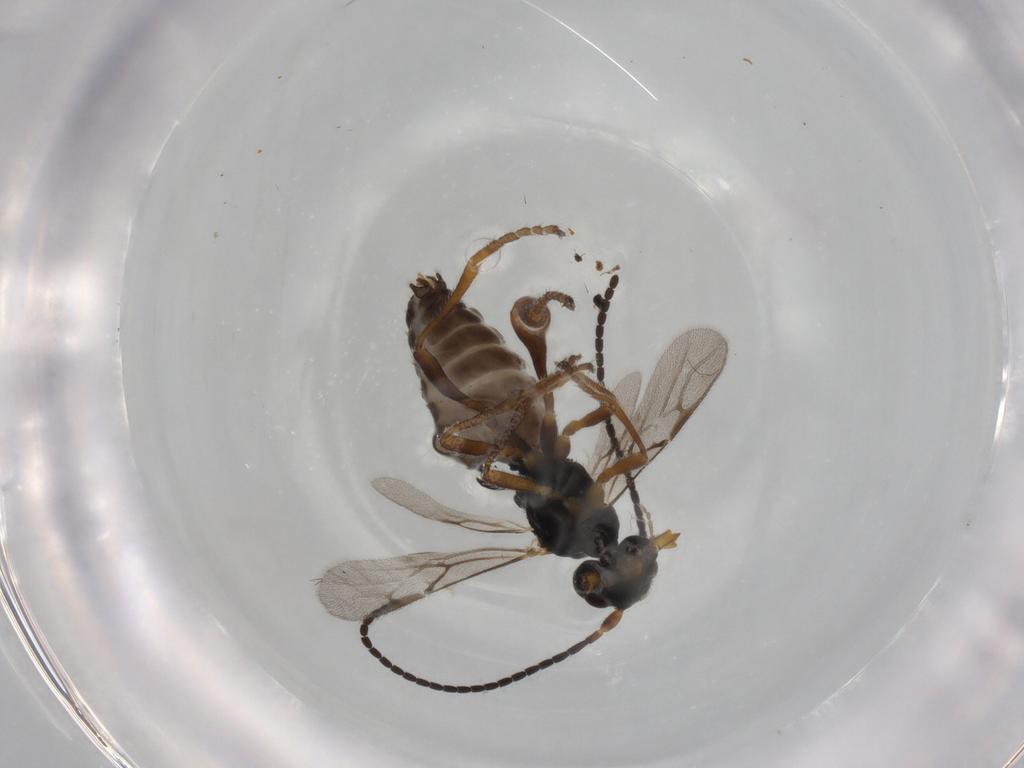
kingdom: Animalia
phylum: Arthropoda
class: Insecta
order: Hymenoptera
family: Braconidae
